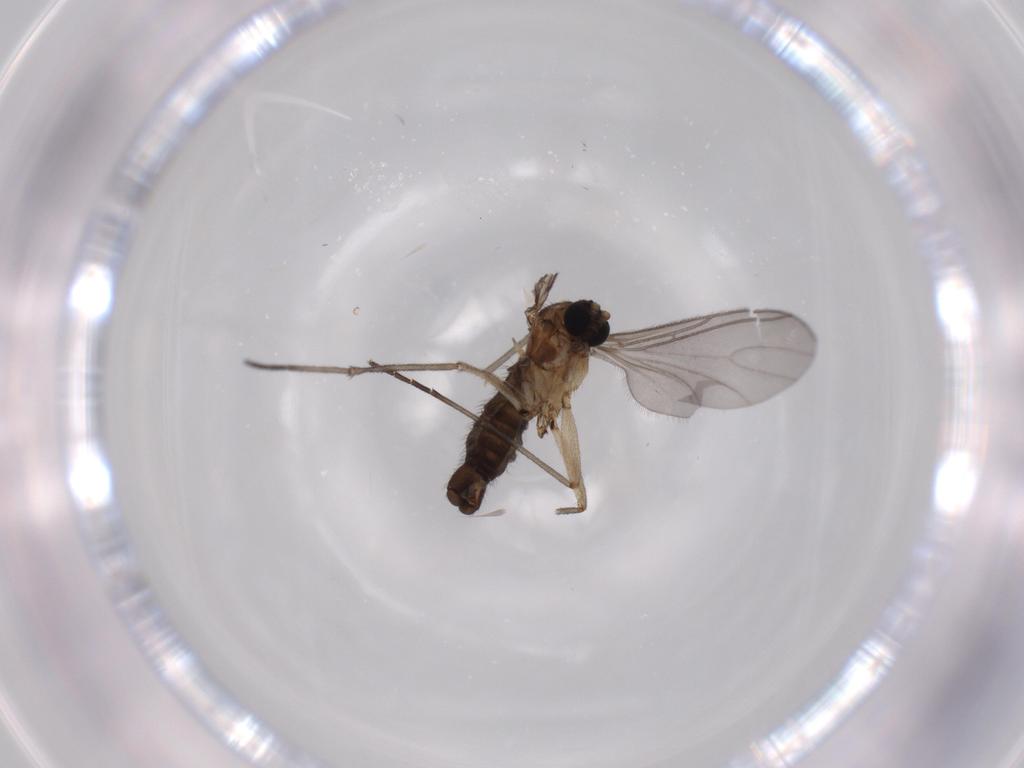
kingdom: Animalia
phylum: Arthropoda
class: Insecta
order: Diptera
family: Sciaridae
